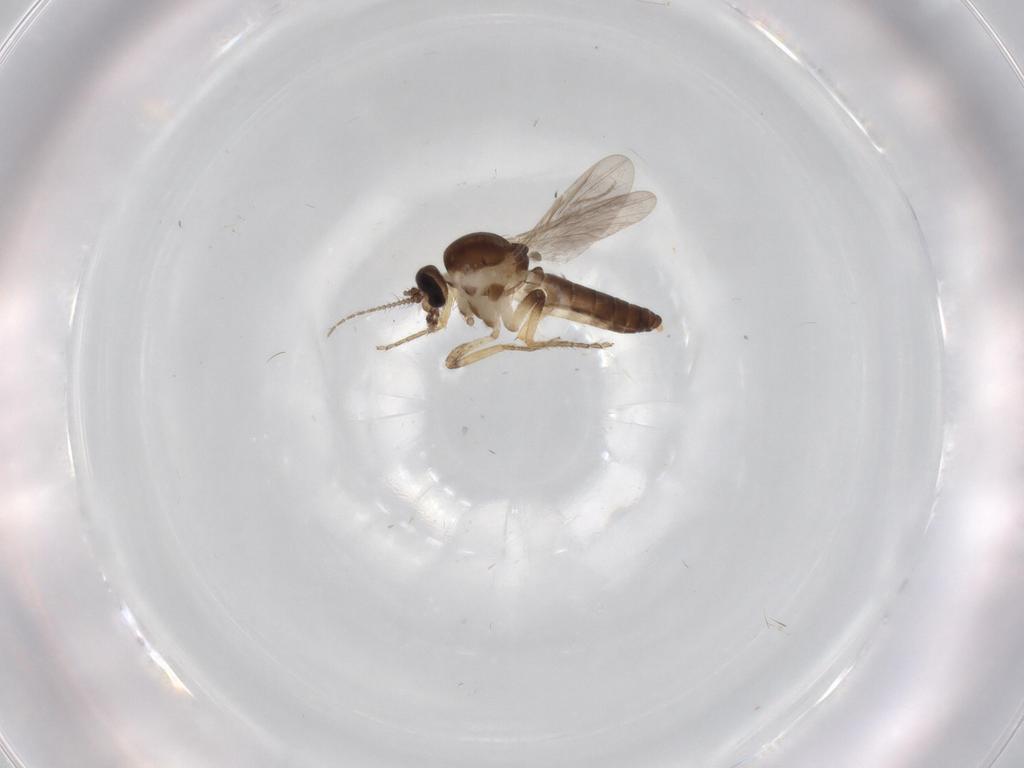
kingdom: Animalia
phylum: Arthropoda
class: Insecta
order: Diptera
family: Ceratopogonidae
